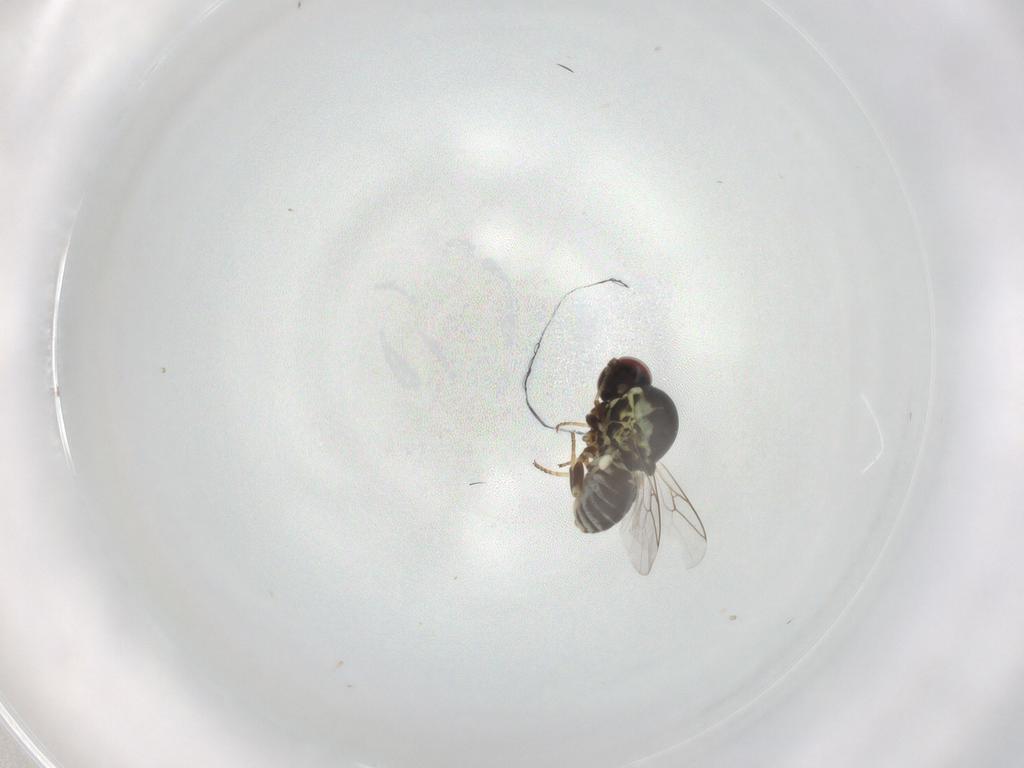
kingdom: Animalia
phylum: Arthropoda
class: Insecta
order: Diptera
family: Bombyliidae
